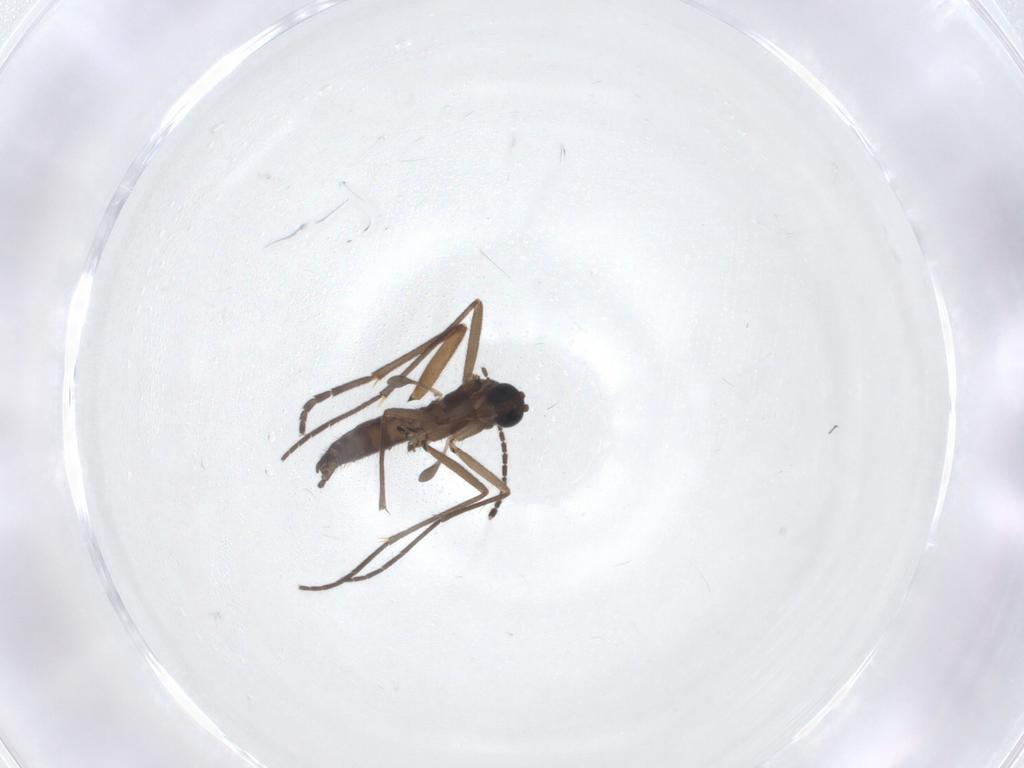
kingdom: Animalia
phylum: Arthropoda
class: Insecta
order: Diptera
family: Sciaridae
